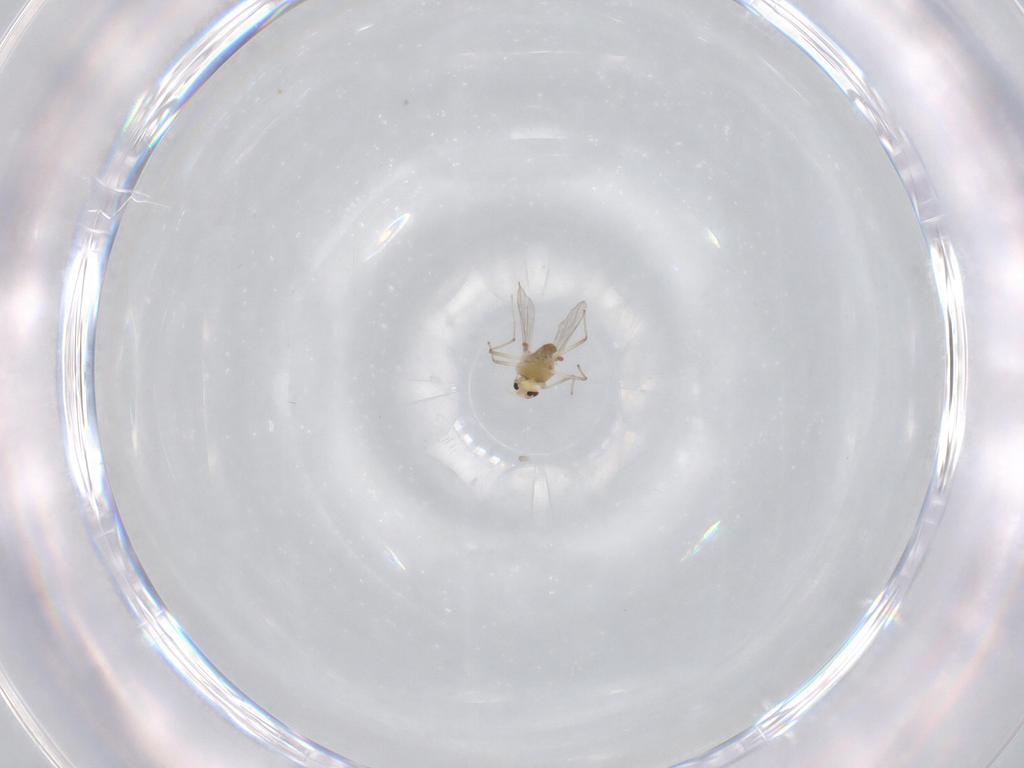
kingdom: Animalia
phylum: Arthropoda
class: Insecta
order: Diptera
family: Chironomidae
